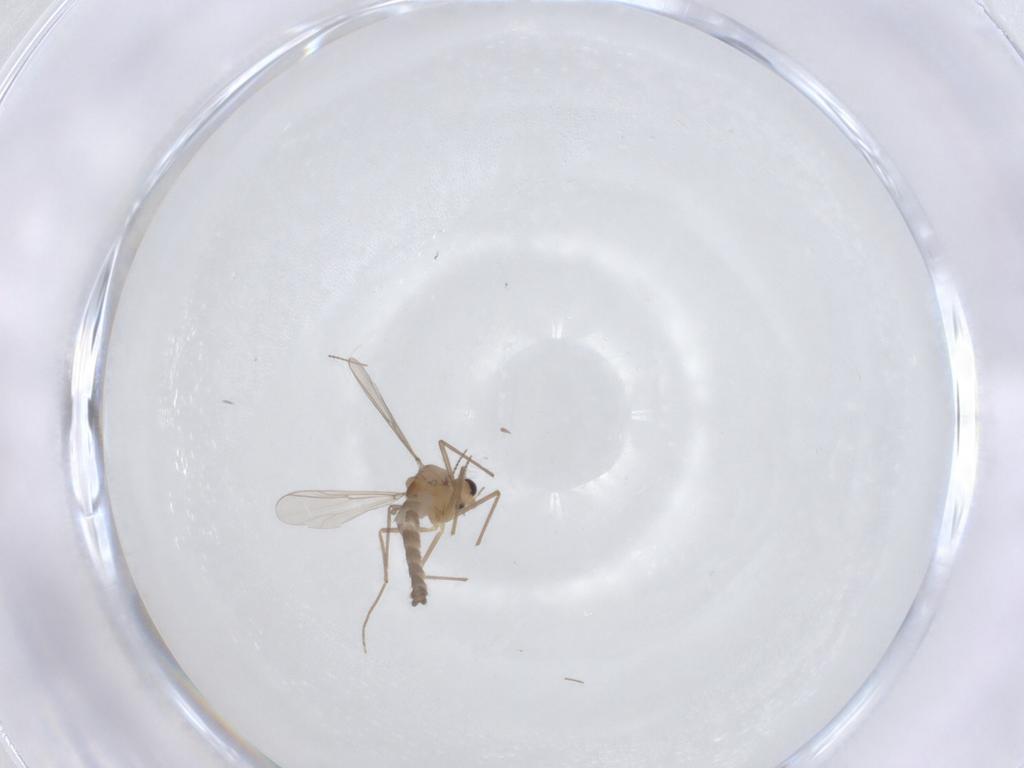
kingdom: Animalia
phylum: Arthropoda
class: Insecta
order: Diptera
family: Chironomidae
